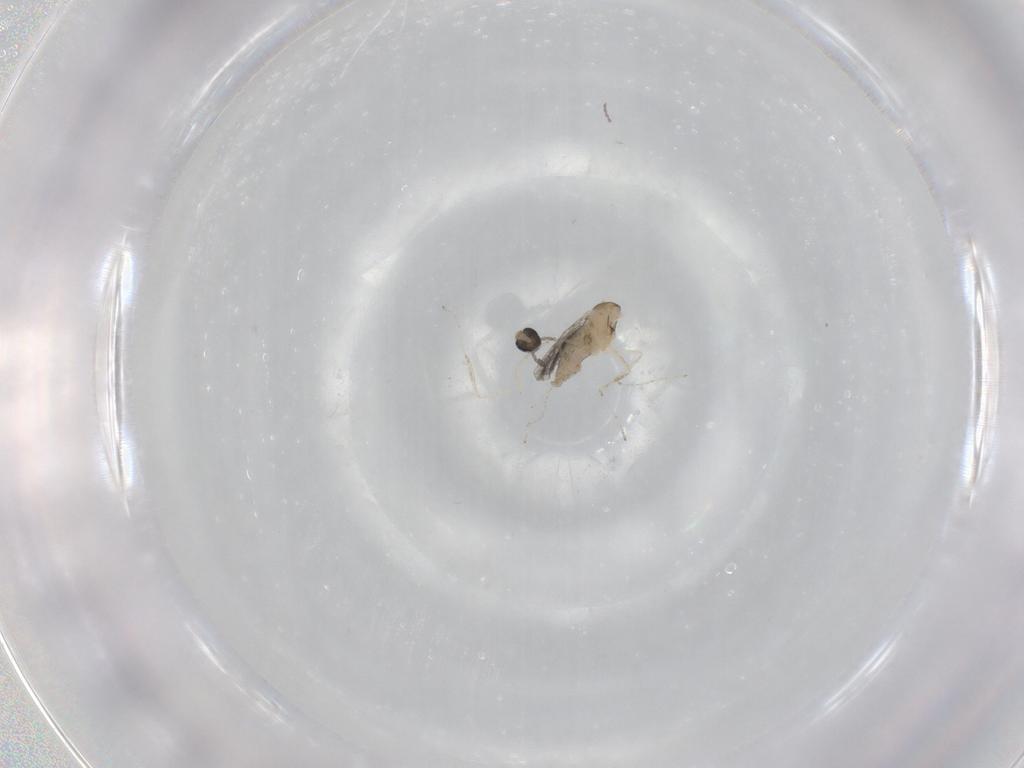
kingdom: Animalia
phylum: Arthropoda
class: Insecta
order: Diptera
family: Cecidomyiidae
